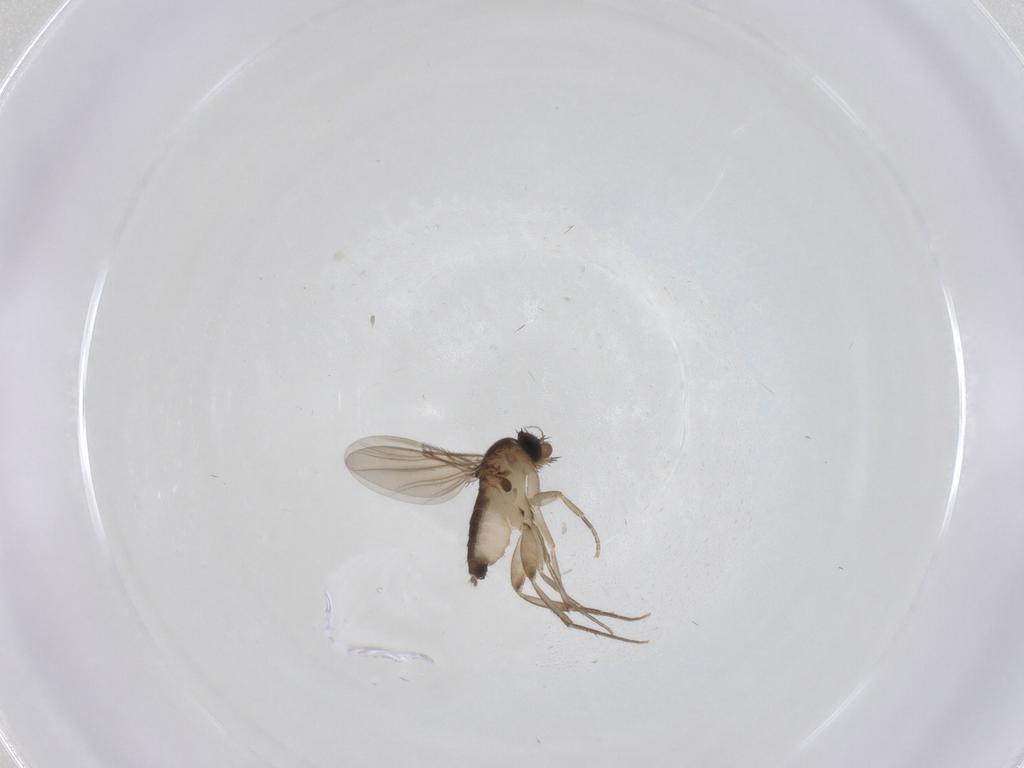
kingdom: Animalia
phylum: Arthropoda
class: Insecta
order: Diptera
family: Phoridae
